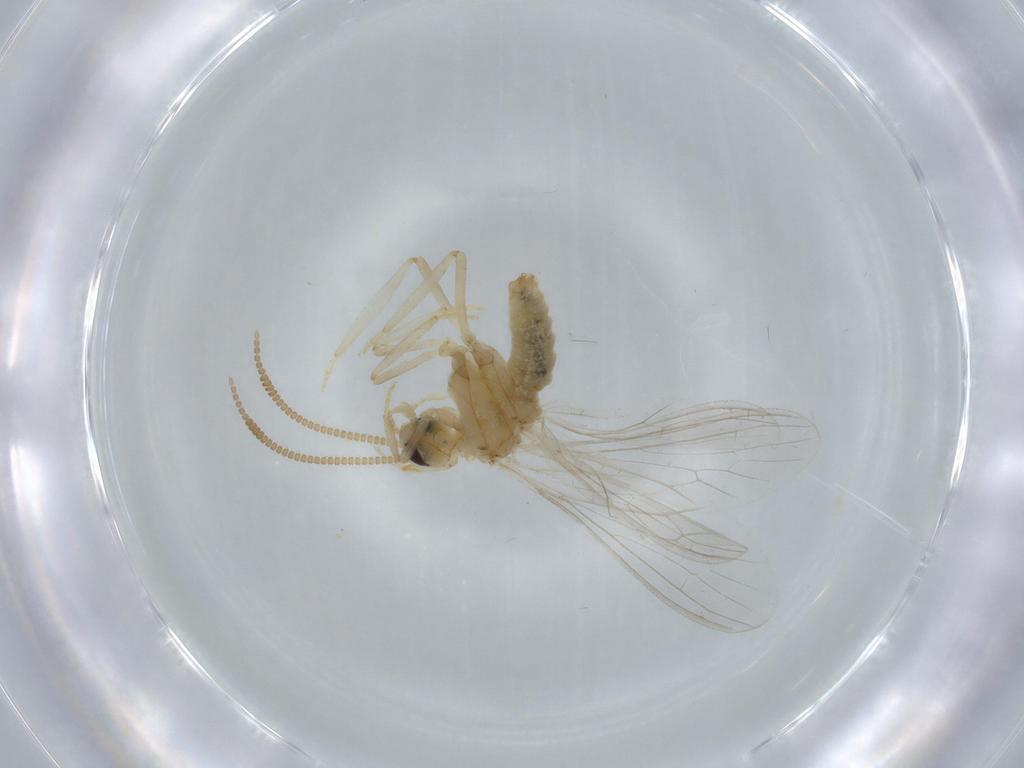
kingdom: Animalia
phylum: Arthropoda
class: Insecta
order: Neuroptera
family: Coniopterygidae
